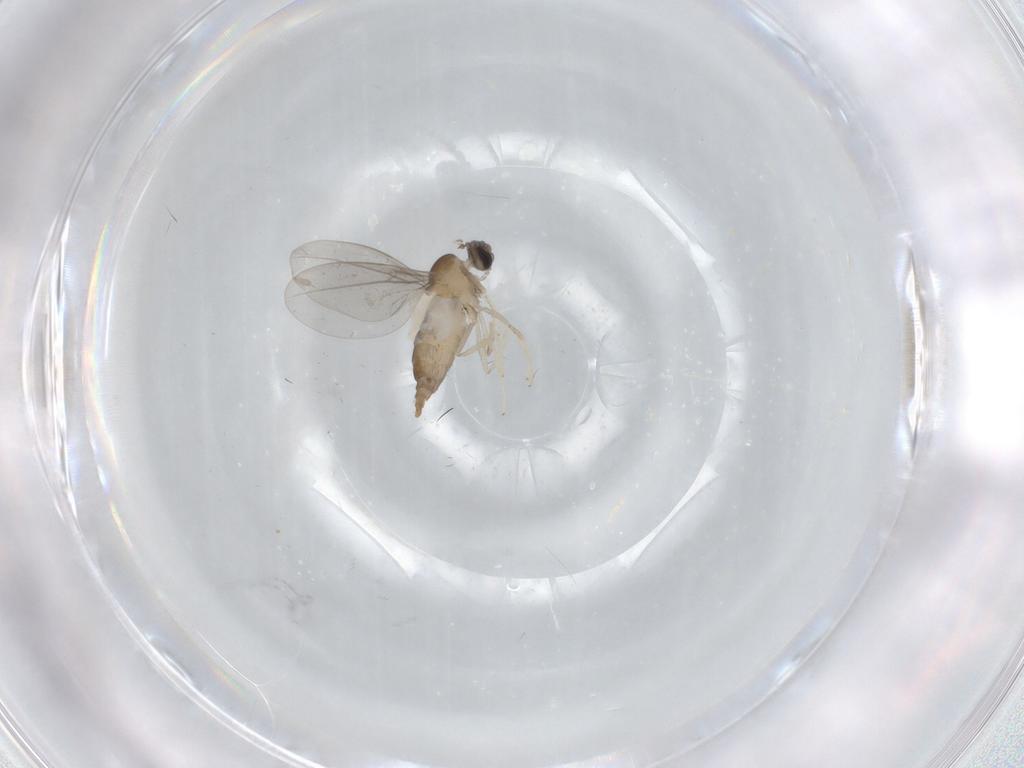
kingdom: Animalia
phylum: Arthropoda
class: Insecta
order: Diptera
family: Cecidomyiidae
